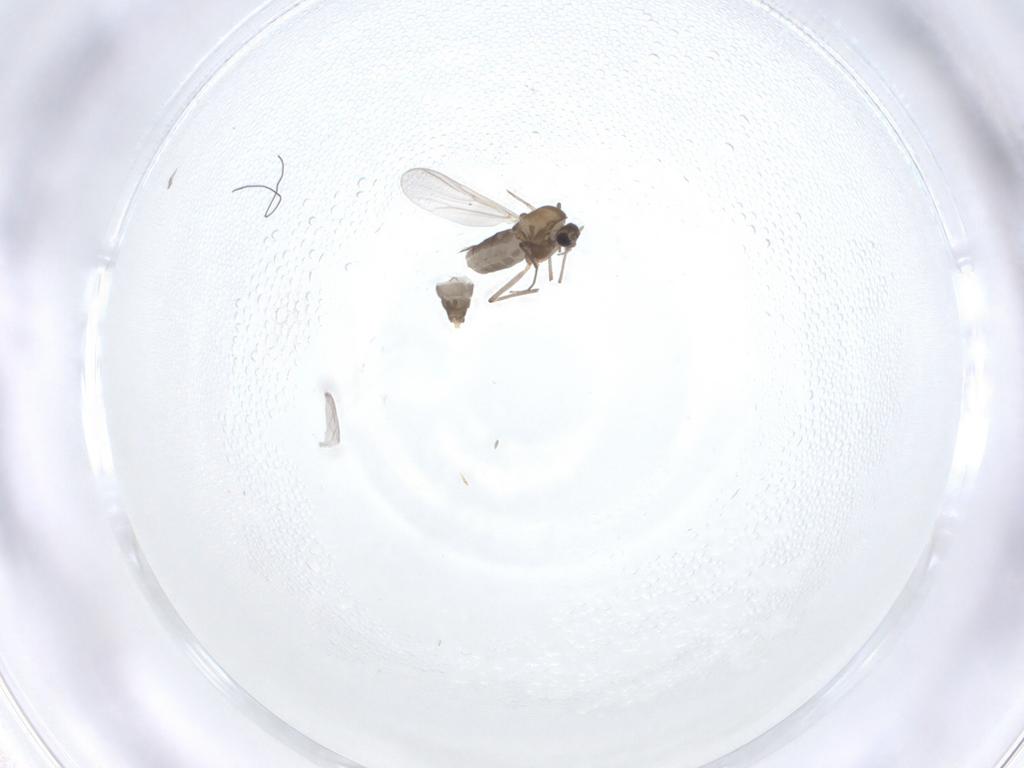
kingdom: Animalia
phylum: Arthropoda
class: Insecta
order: Diptera
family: Chironomidae
